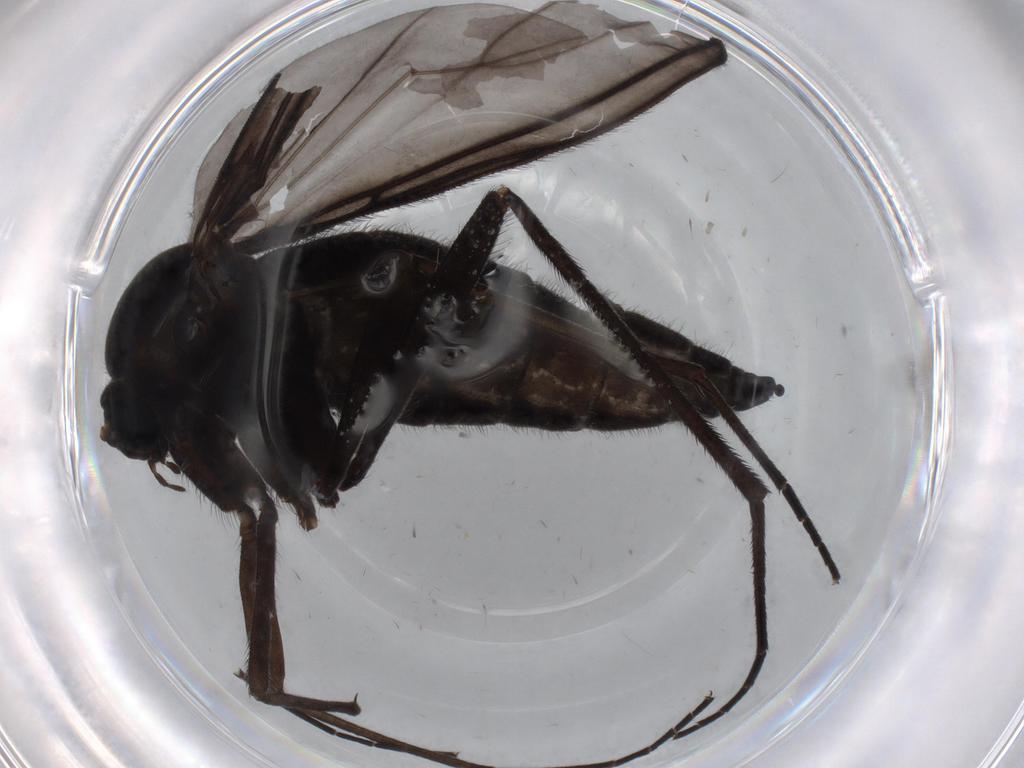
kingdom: Animalia
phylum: Arthropoda
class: Insecta
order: Diptera
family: Sciaridae
